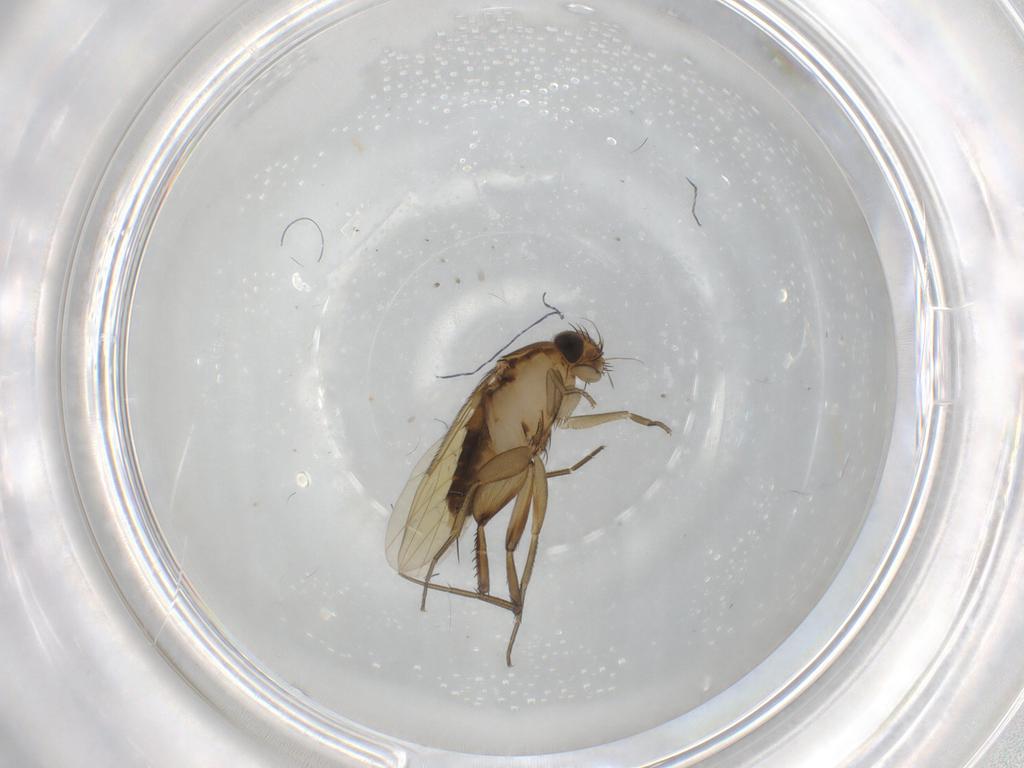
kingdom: Animalia
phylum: Arthropoda
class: Insecta
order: Diptera
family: Phoridae
